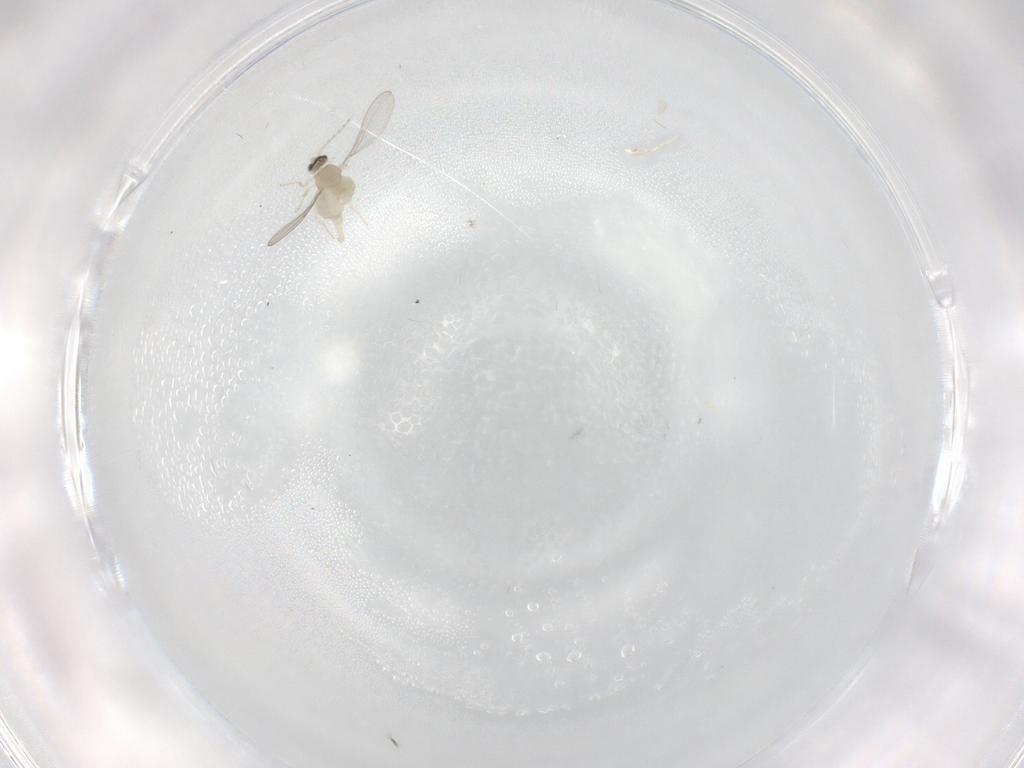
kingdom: Animalia
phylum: Arthropoda
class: Insecta
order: Diptera
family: Cecidomyiidae
